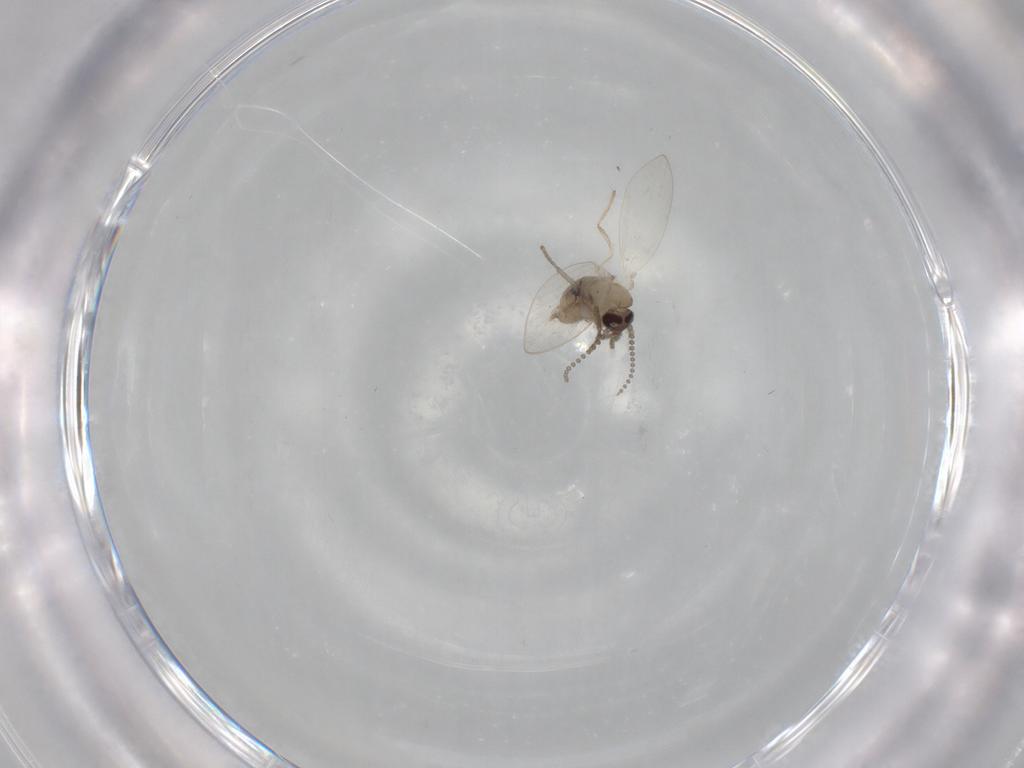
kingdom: Animalia
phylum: Arthropoda
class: Insecta
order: Diptera
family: Psychodidae
